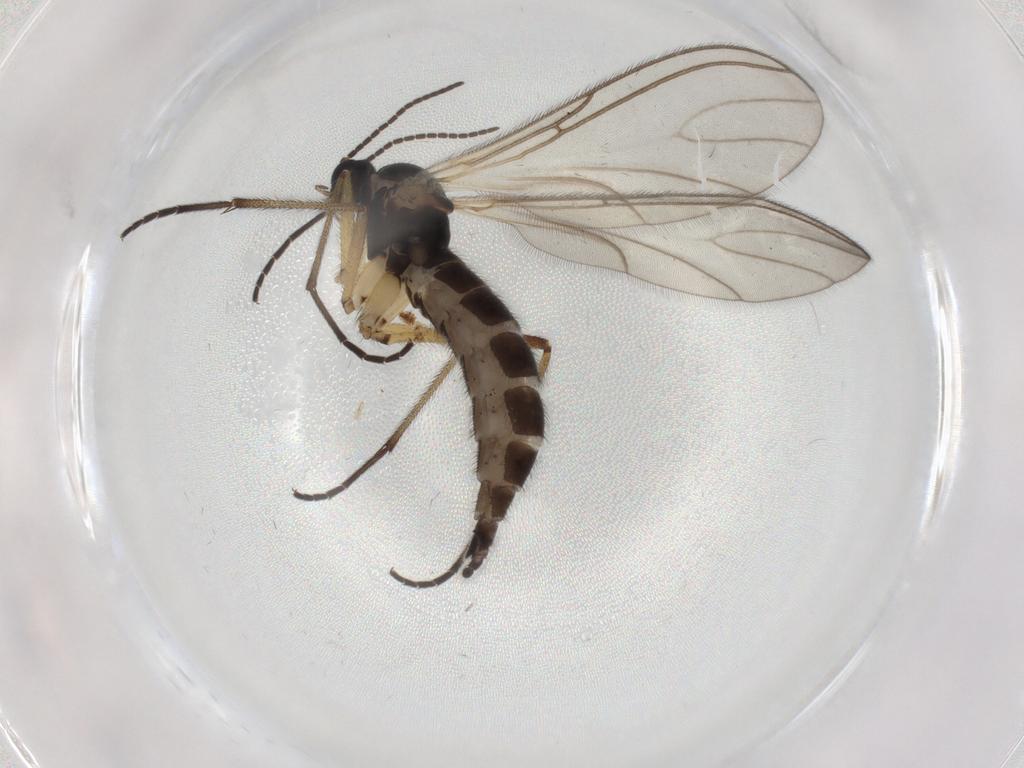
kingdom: Animalia
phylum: Arthropoda
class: Insecta
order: Diptera
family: Sciaridae
